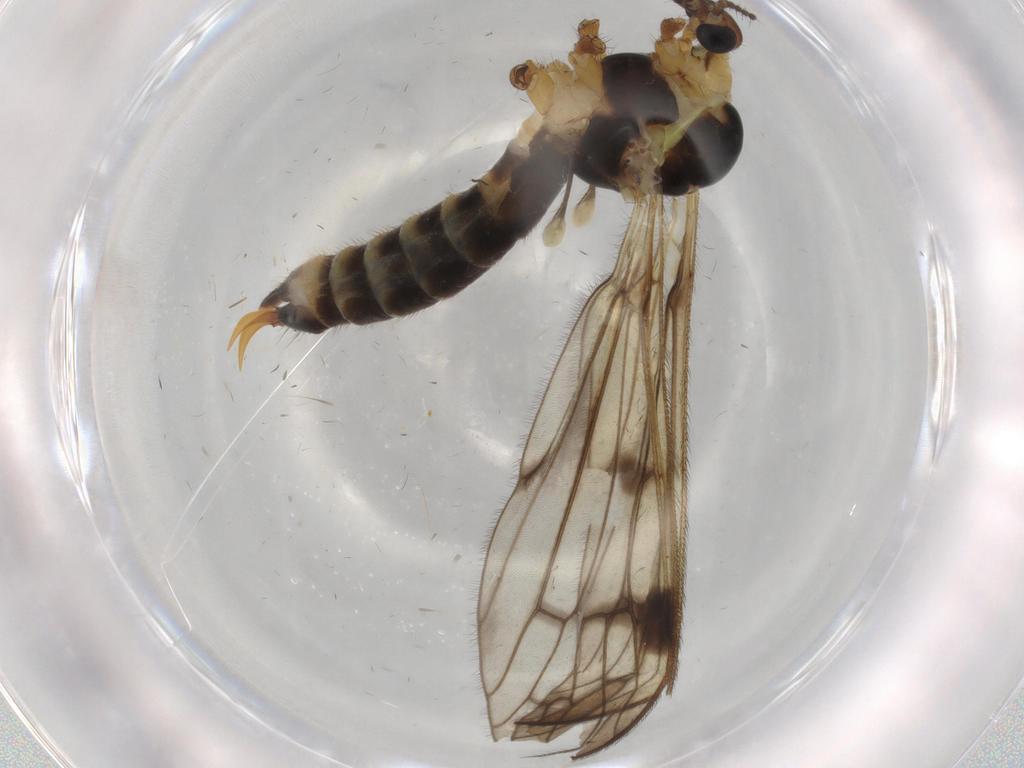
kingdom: Animalia
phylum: Arthropoda
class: Insecta
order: Diptera
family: Limoniidae
